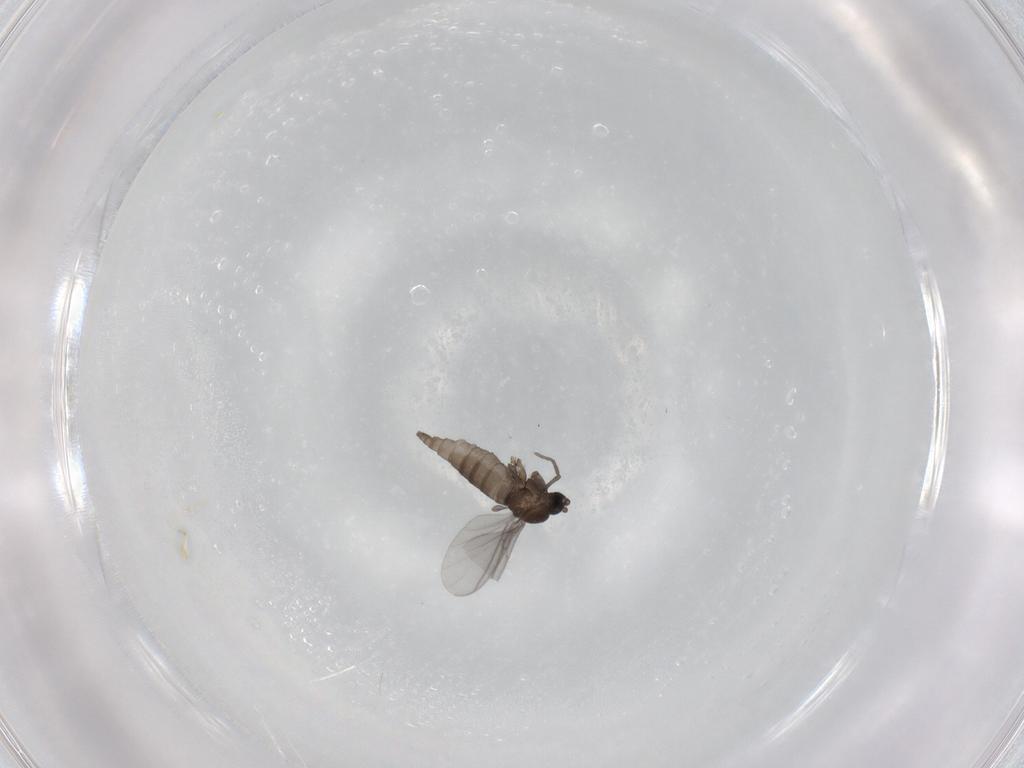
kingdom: Animalia
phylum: Arthropoda
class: Insecta
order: Diptera
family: Sciaridae
